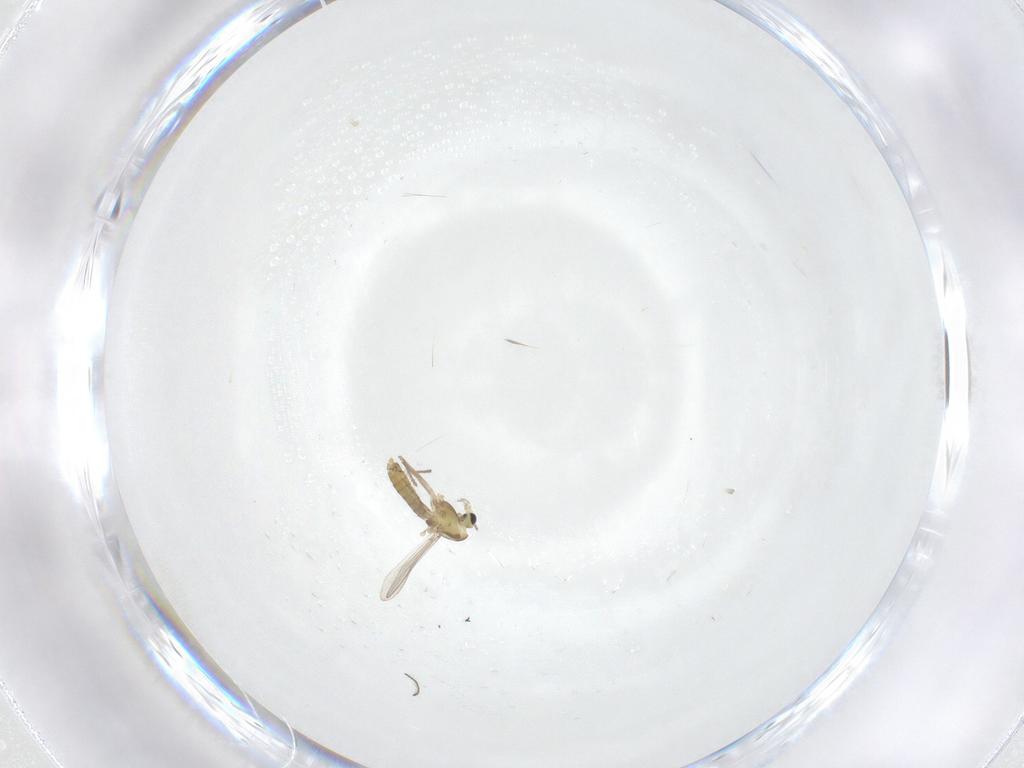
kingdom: Animalia
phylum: Arthropoda
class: Insecta
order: Diptera
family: Chironomidae
